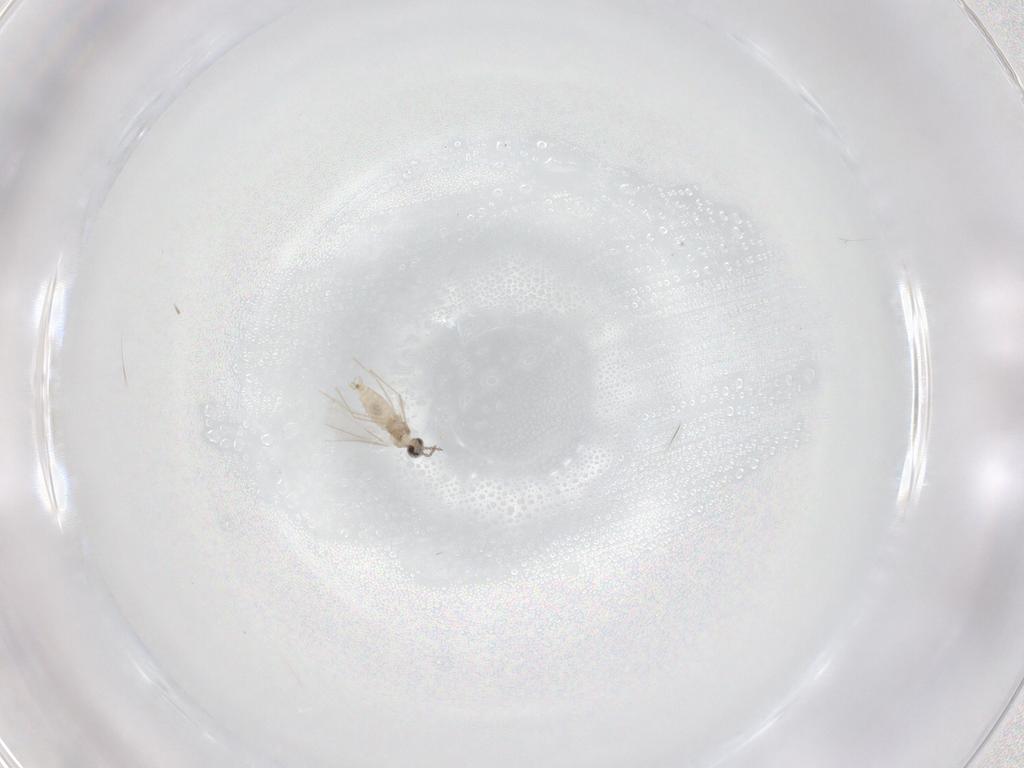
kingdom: Animalia
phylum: Arthropoda
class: Insecta
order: Diptera
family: Cecidomyiidae
